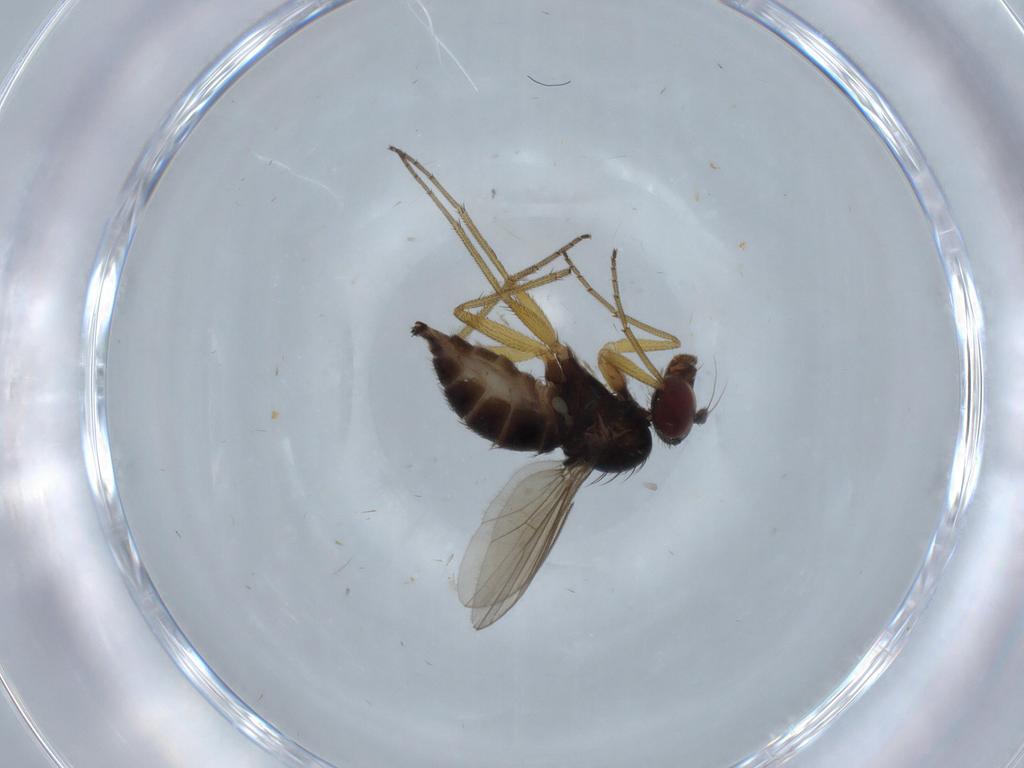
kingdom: Animalia
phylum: Arthropoda
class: Insecta
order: Diptera
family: Dolichopodidae
